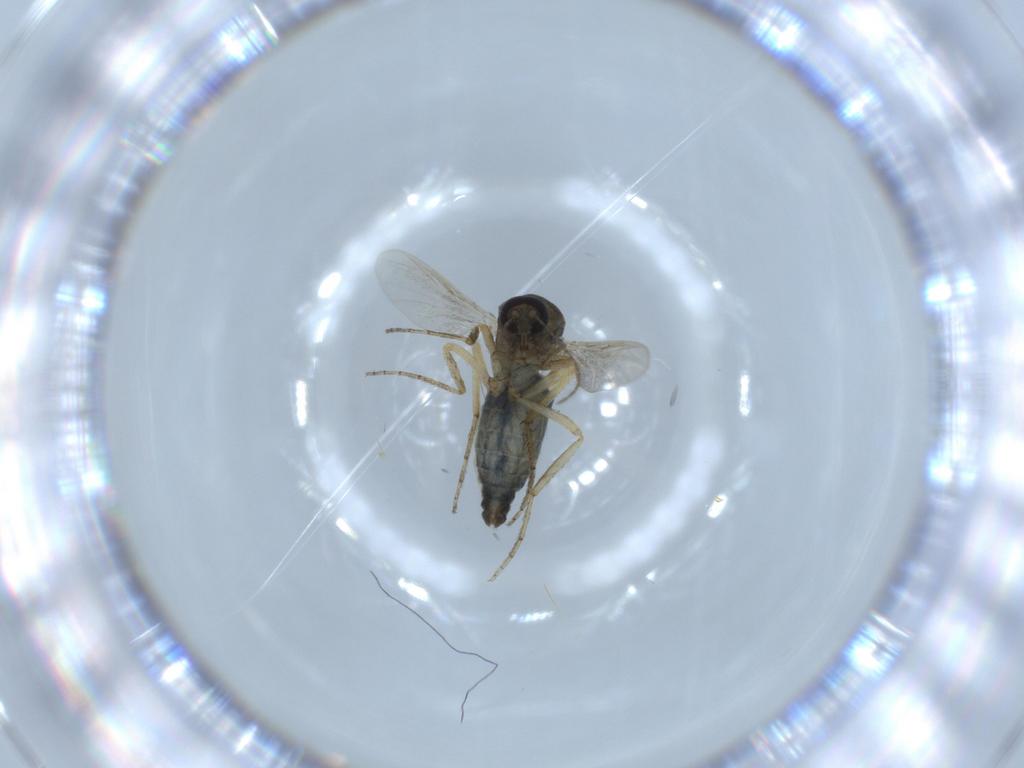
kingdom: Animalia
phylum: Arthropoda
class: Insecta
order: Diptera
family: Ceratopogonidae
